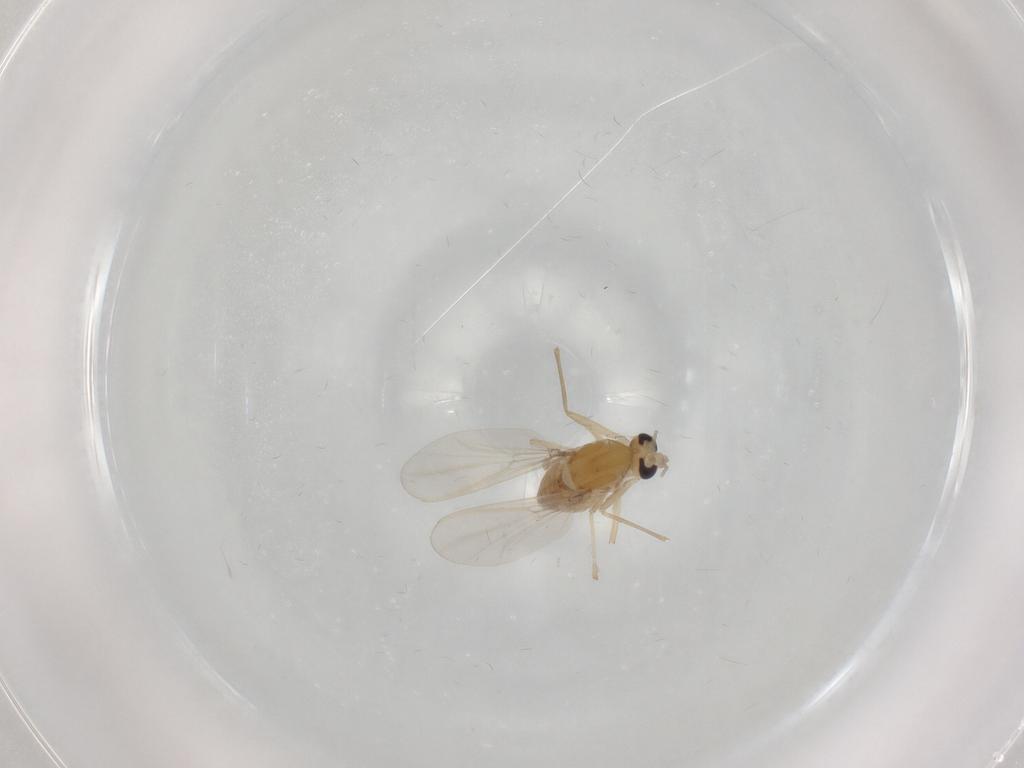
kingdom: Animalia
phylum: Arthropoda
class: Insecta
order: Diptera
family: Chironomidae
